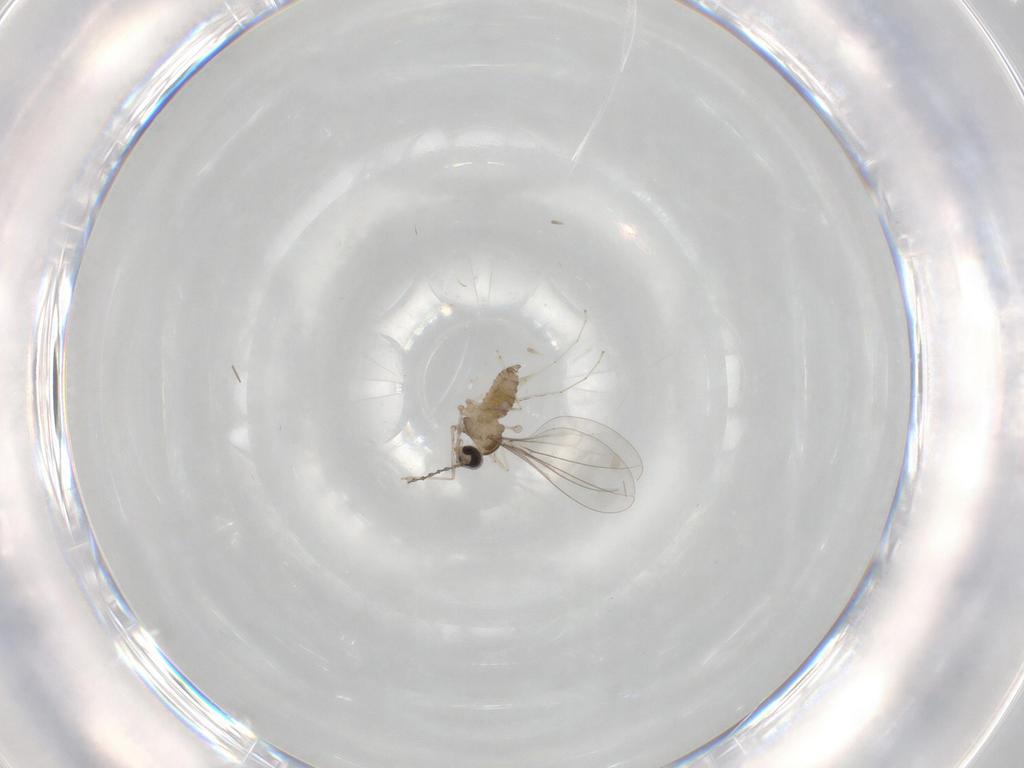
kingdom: Animalia
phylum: Arthropoda
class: Insecta
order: Diptera
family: Cecidomyiidae
